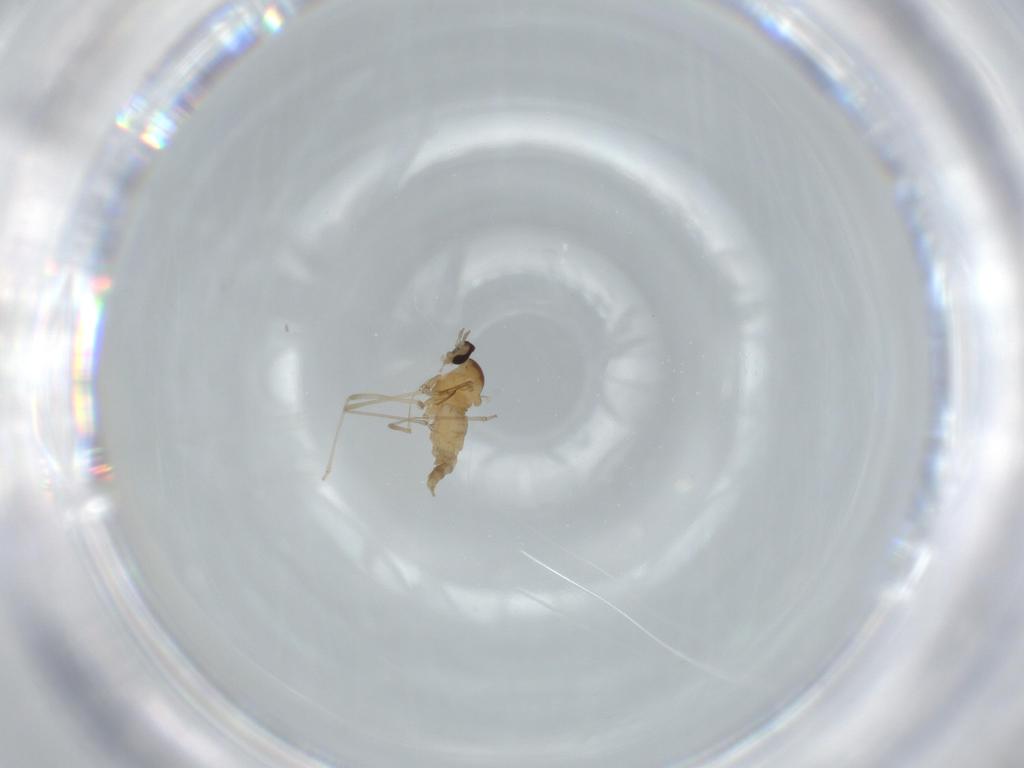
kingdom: Animalia
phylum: Arthropoda
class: Insecta
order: Diptera
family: Cecidomyiidae
